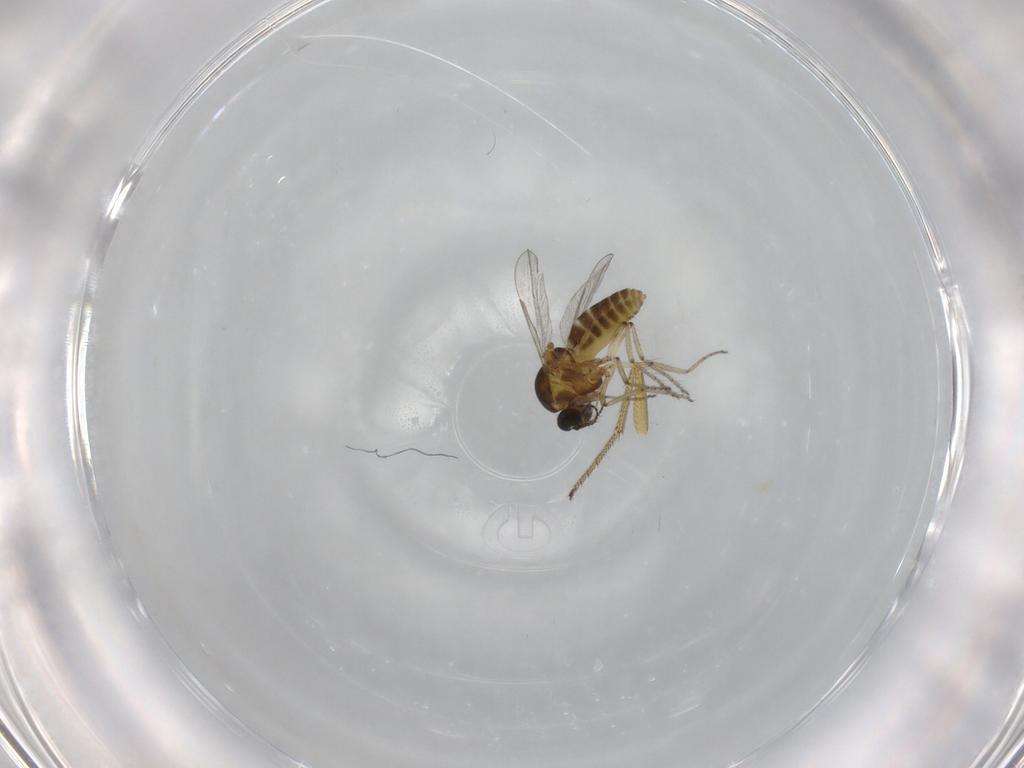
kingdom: Animalia
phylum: Arthropoda
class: Insecta
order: Diptera
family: Ceratopogonidae
